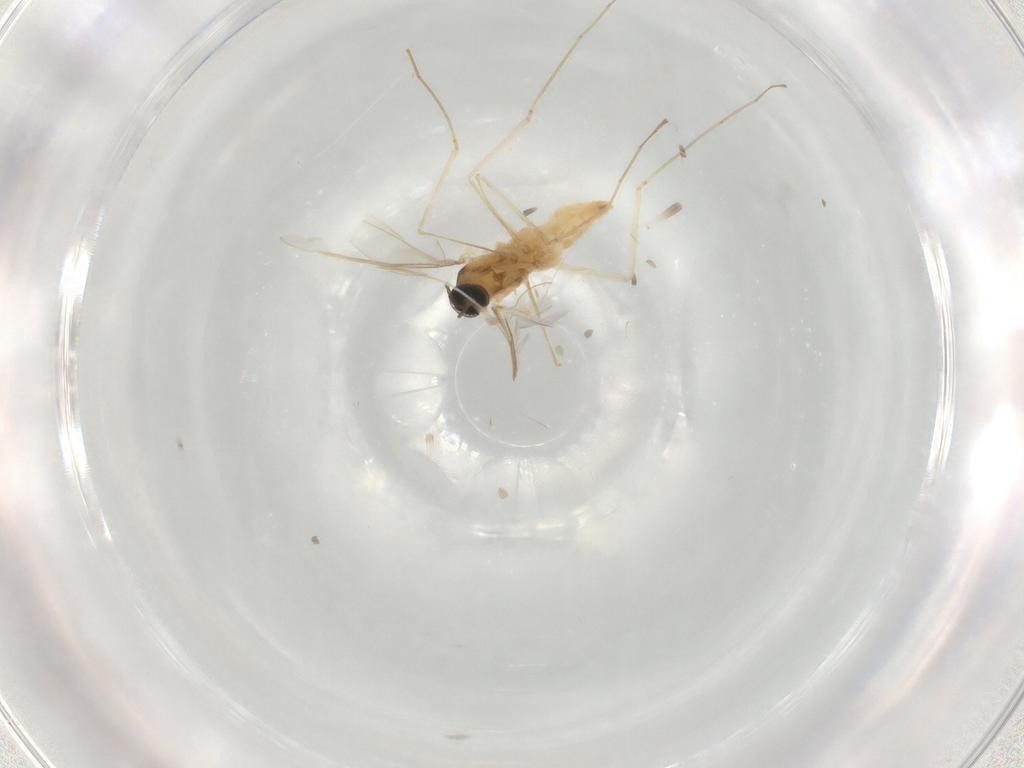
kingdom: Animalia
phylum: Arthropoda
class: Insecta
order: Diptera
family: Cecidomyiidae
